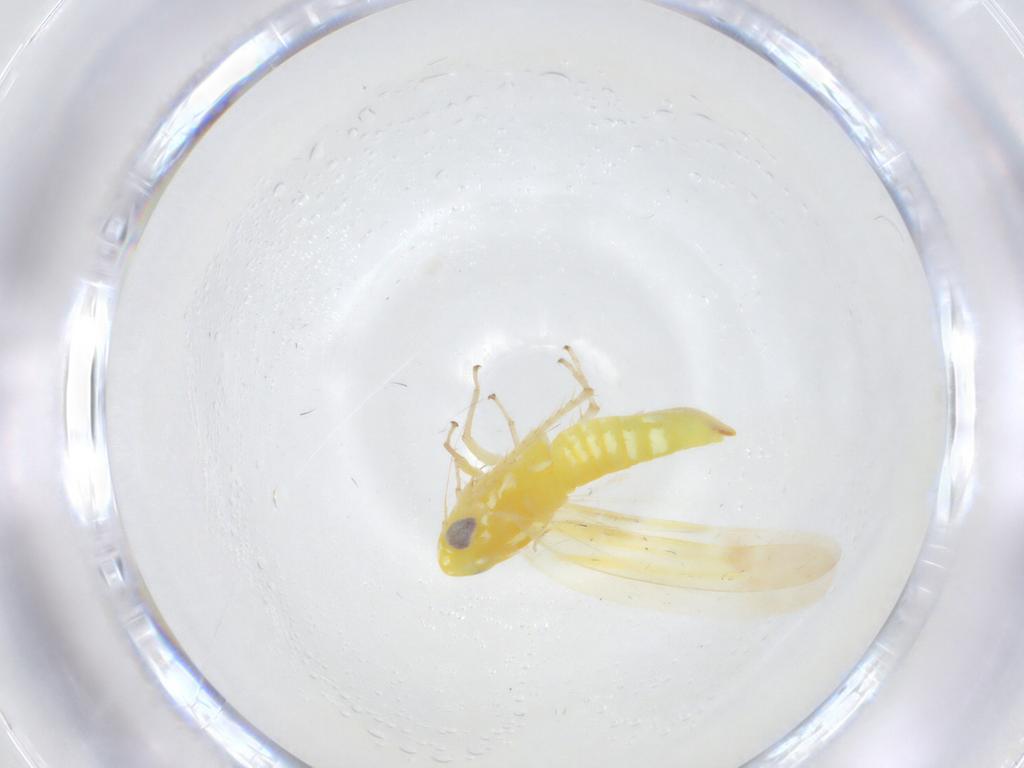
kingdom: Animalia
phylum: Arthropoda
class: Insecta
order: Hemiptera
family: Cicadellidae
